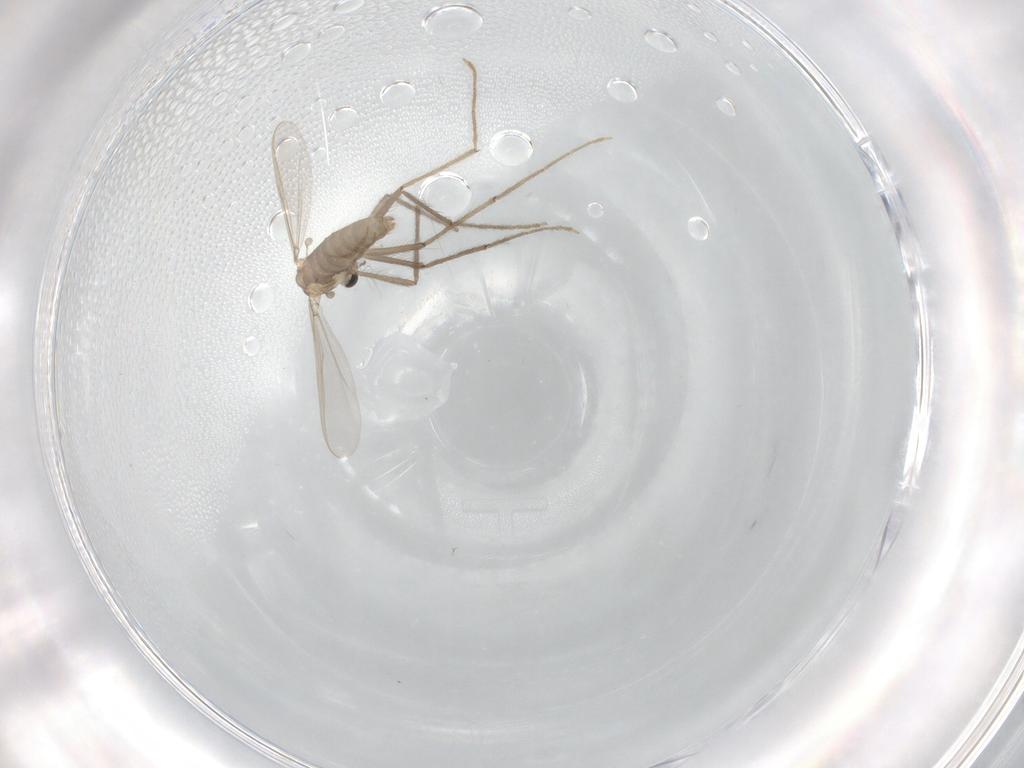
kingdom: Animalia
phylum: Arthropoda
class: Insecta
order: Diptera
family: Chironomidae
